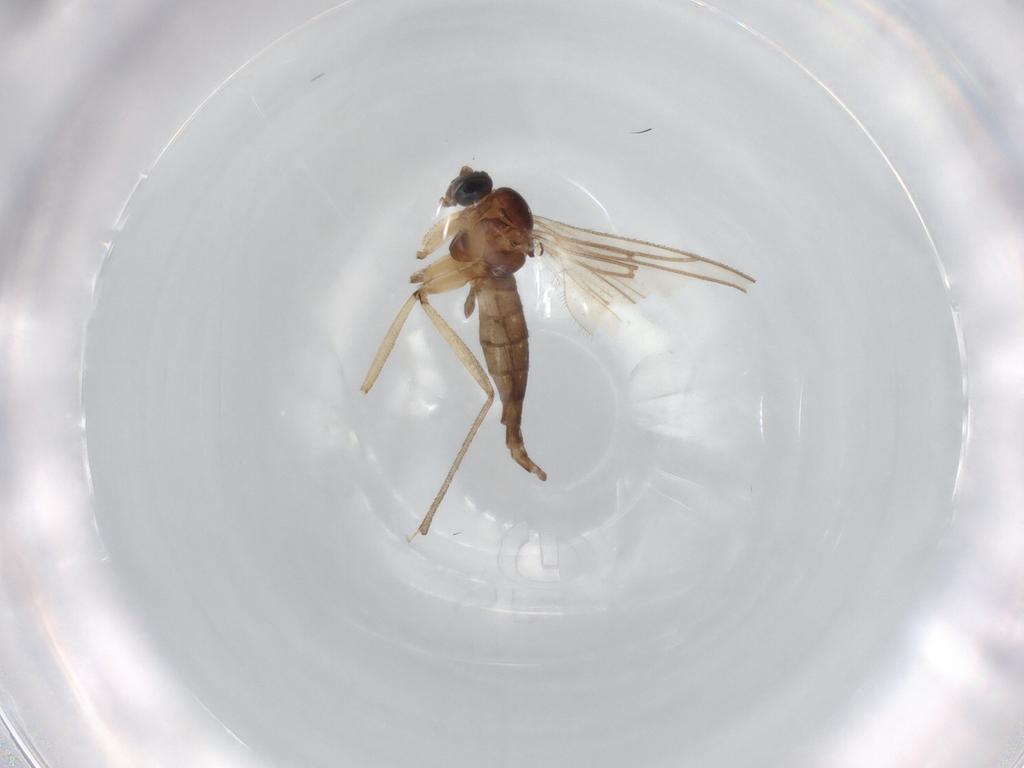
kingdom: Animalia
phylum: Arthropoda
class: Insecta
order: Diptera
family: Sciaridae
